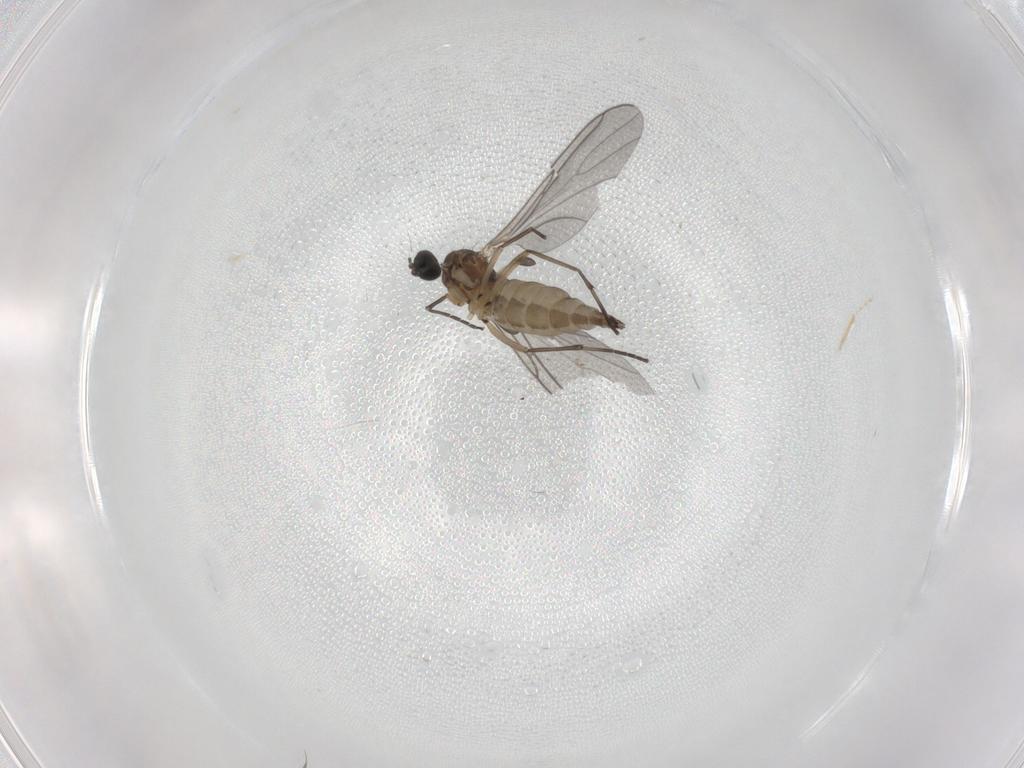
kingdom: Animalia
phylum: Arthropoda
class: Insecta
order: Diptera
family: Sciaridae
